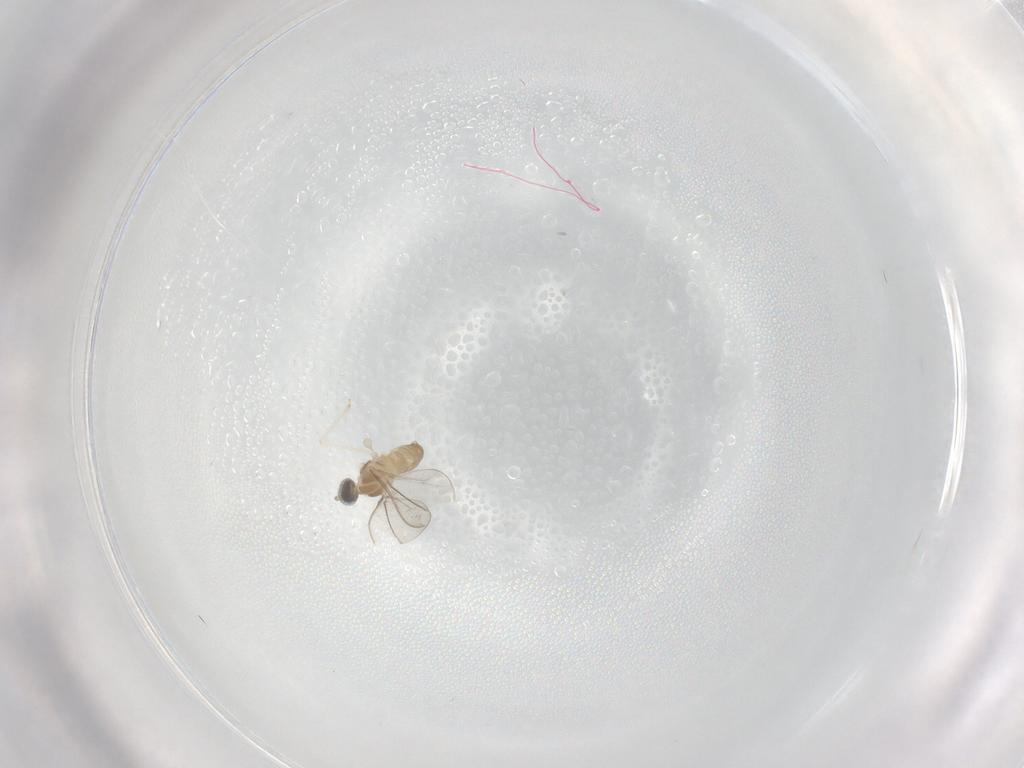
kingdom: Animalia
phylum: Arthropoda
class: Insecta
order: Diptera
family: Cecidomyiidae
